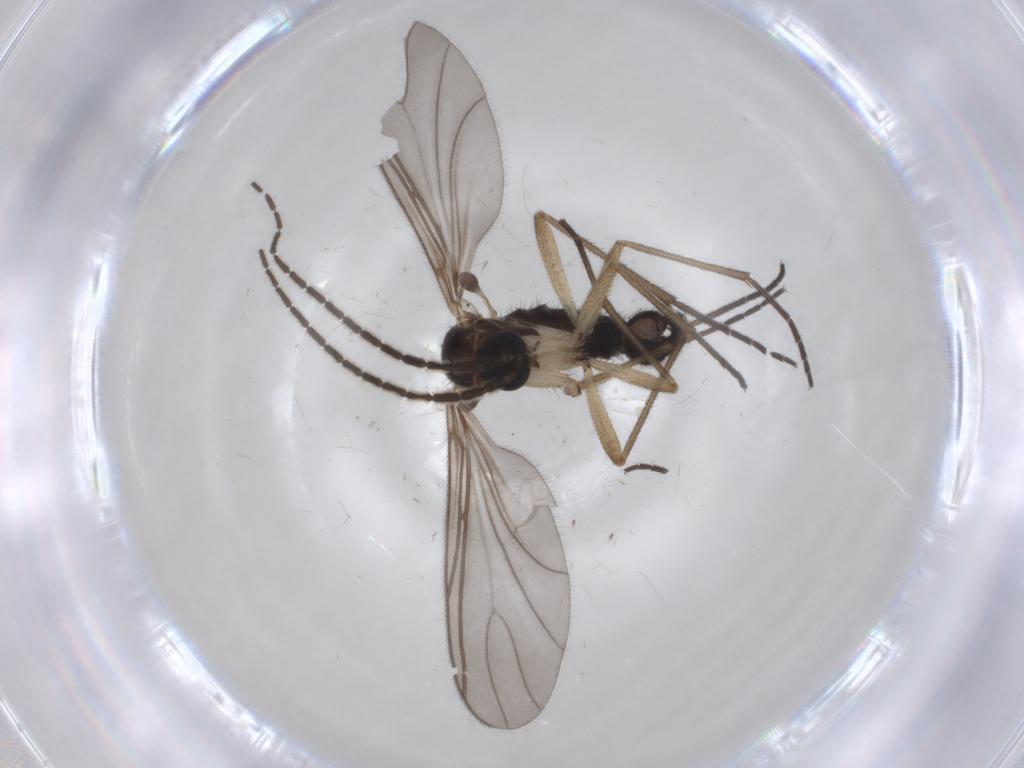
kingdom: Animalia
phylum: Arthropoda
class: Insecta
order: Diptera
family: Sciaridae
